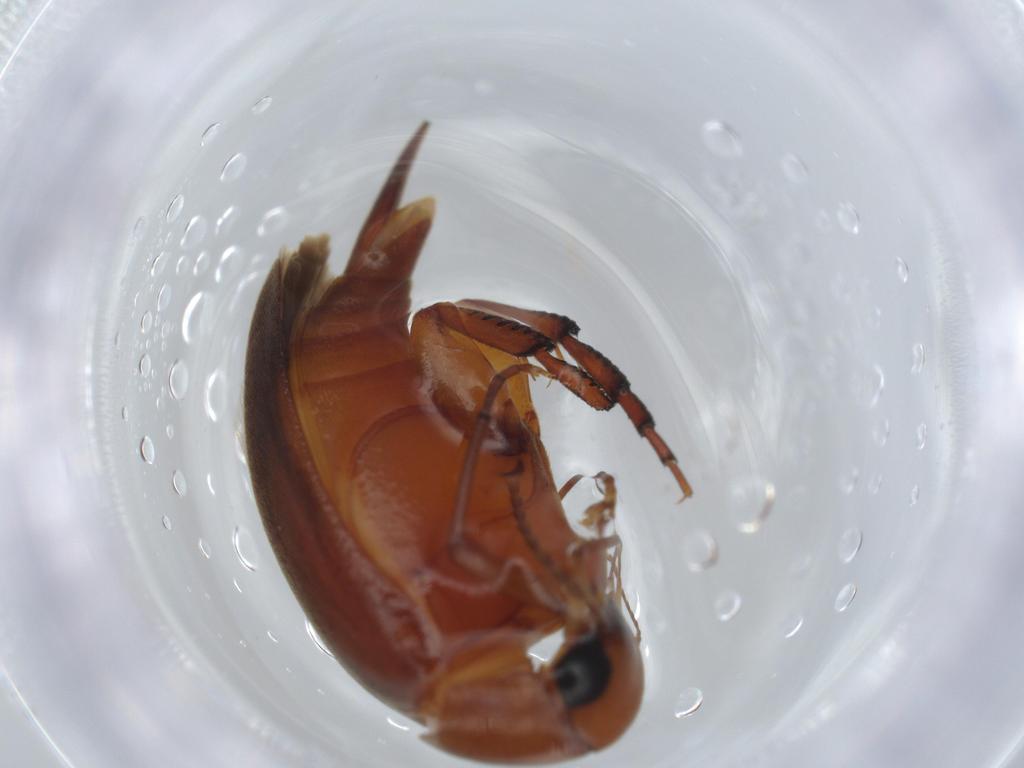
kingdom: Animalia
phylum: Arthropoda
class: Insecta
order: Coleoptera
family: Mordellidae
